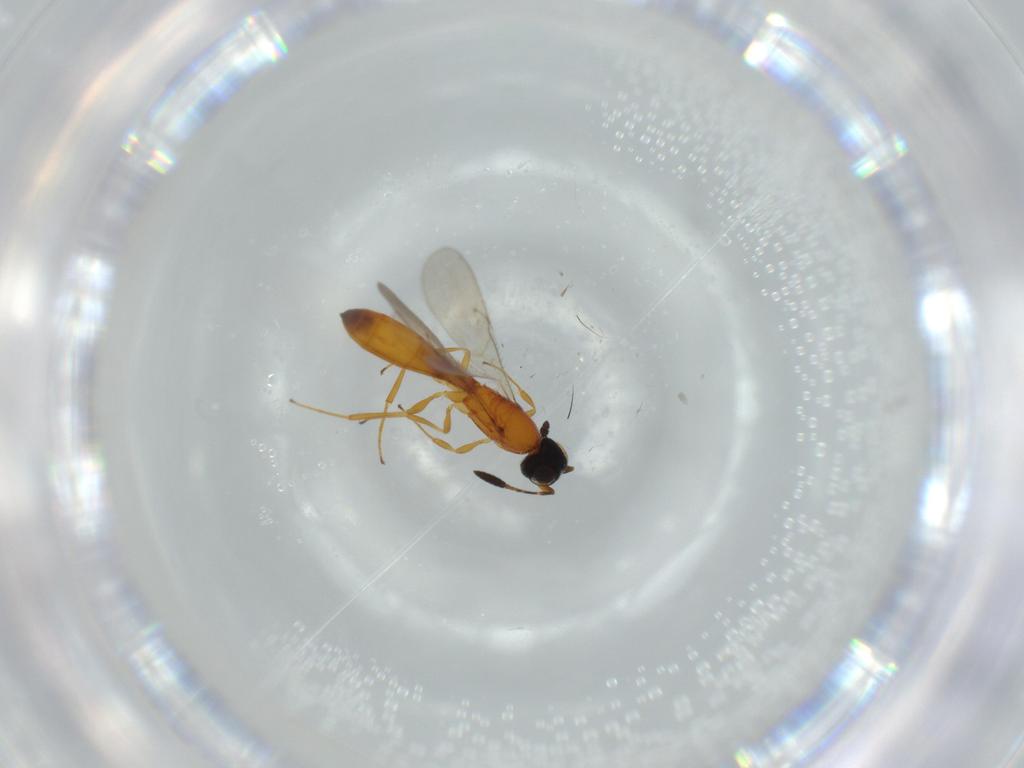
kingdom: Animalia
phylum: Arthropoda
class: Insecta
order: Hymenoptera
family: Scelionidae
